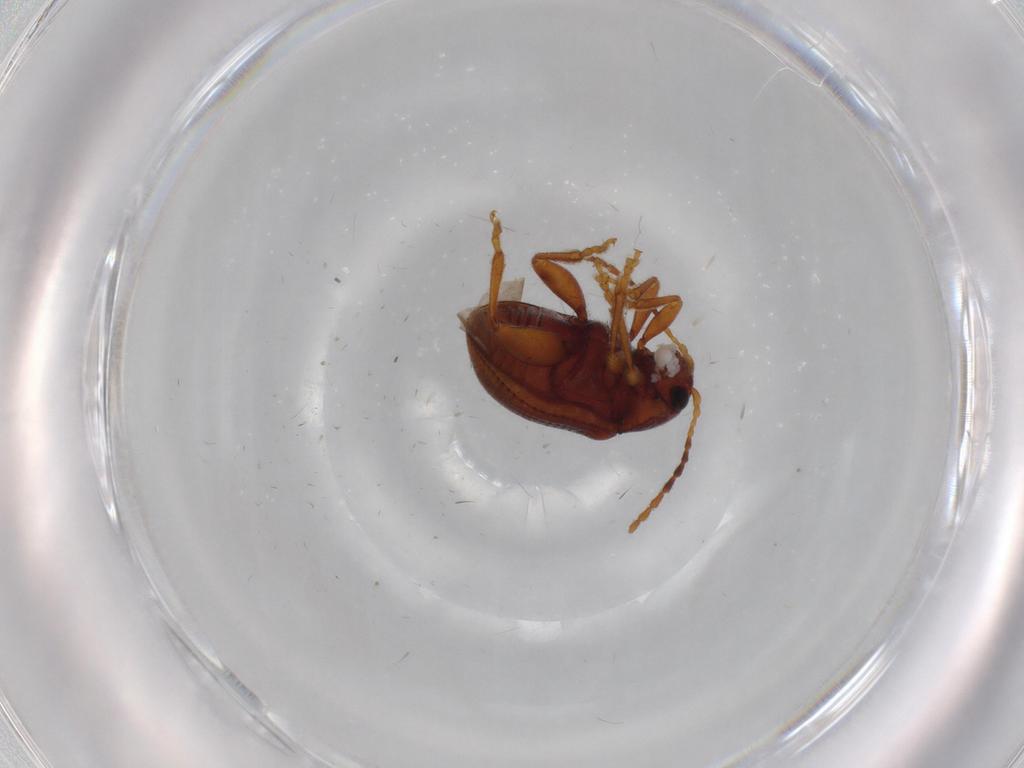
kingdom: Animalia
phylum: Arthropoda
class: Insecta
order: Coleoptera
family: Chrysomelidae
